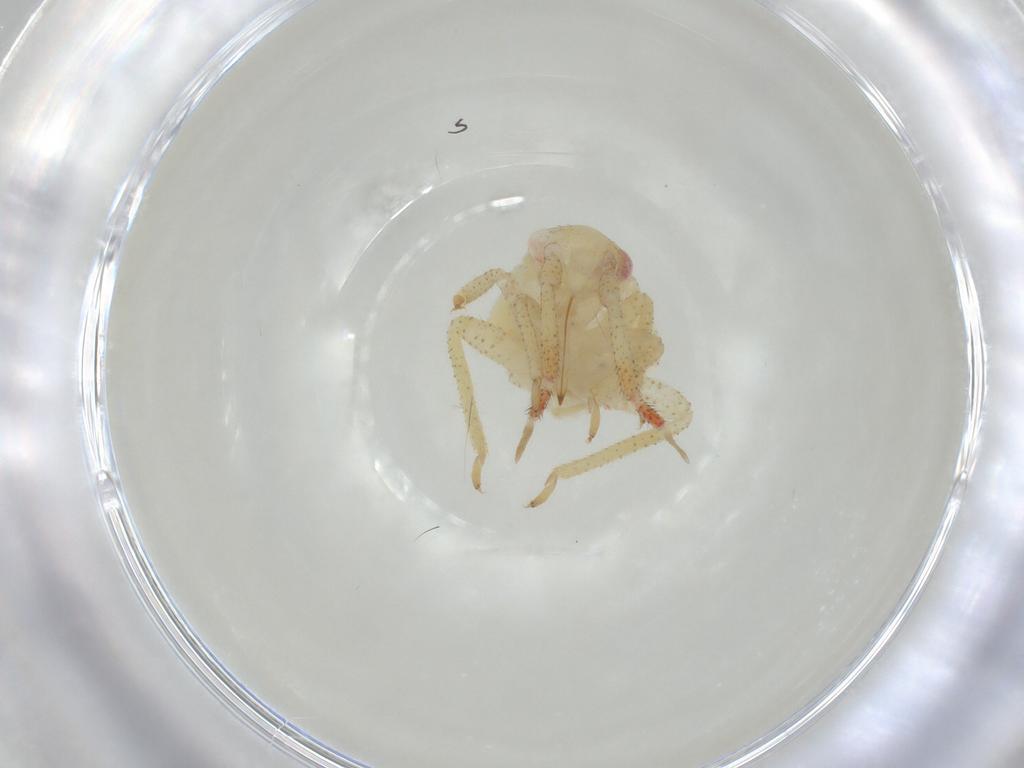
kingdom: Animalia
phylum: Arthropoda
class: Insecta
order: Hemiptera
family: Miridae
